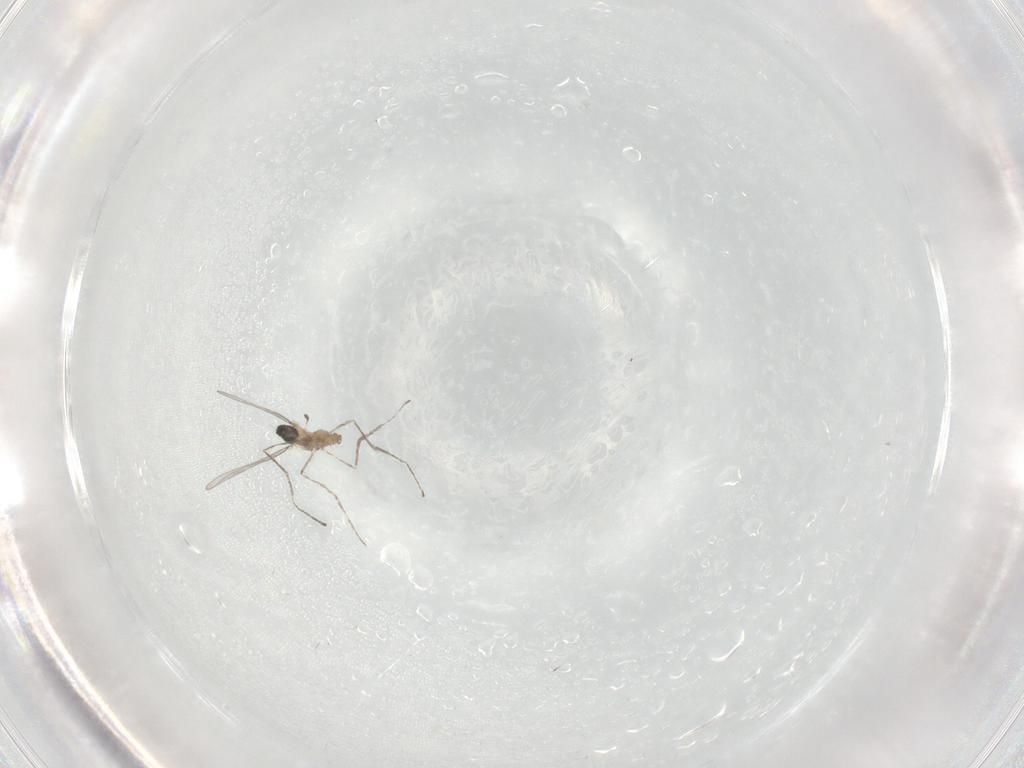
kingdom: Animalia
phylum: Arthropoda
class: Insecta
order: Diptera
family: Cecidomyiidae
